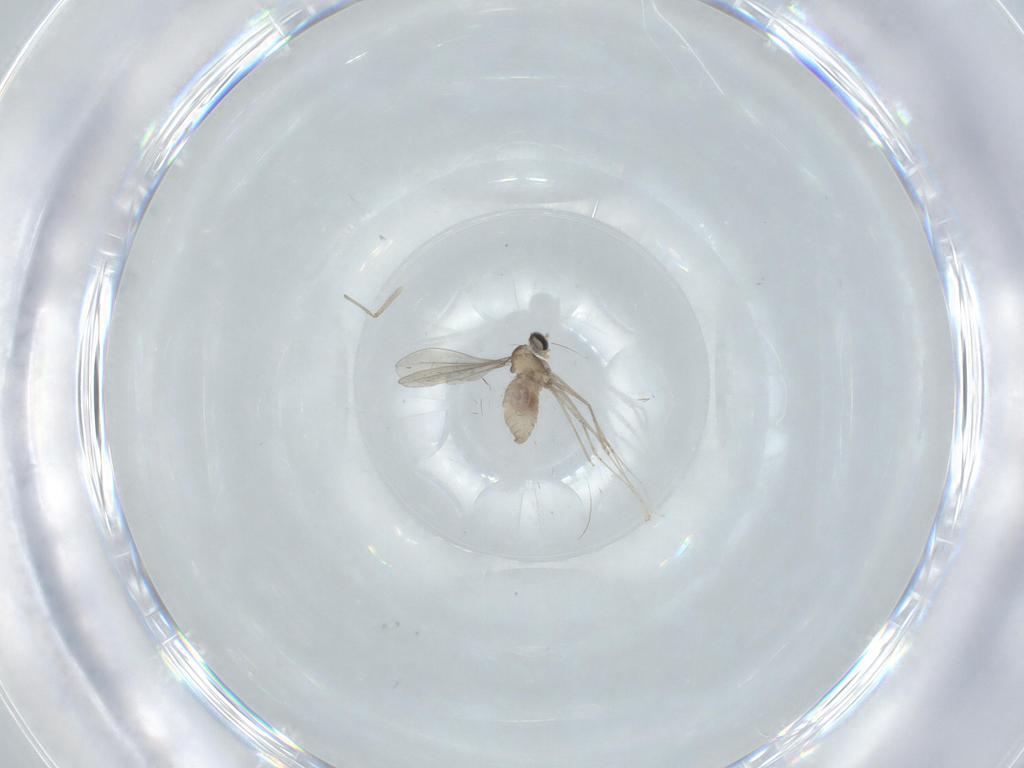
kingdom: Animalia
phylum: Arthropoda
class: Insecta
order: Diptera
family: Cecidomyiidae
